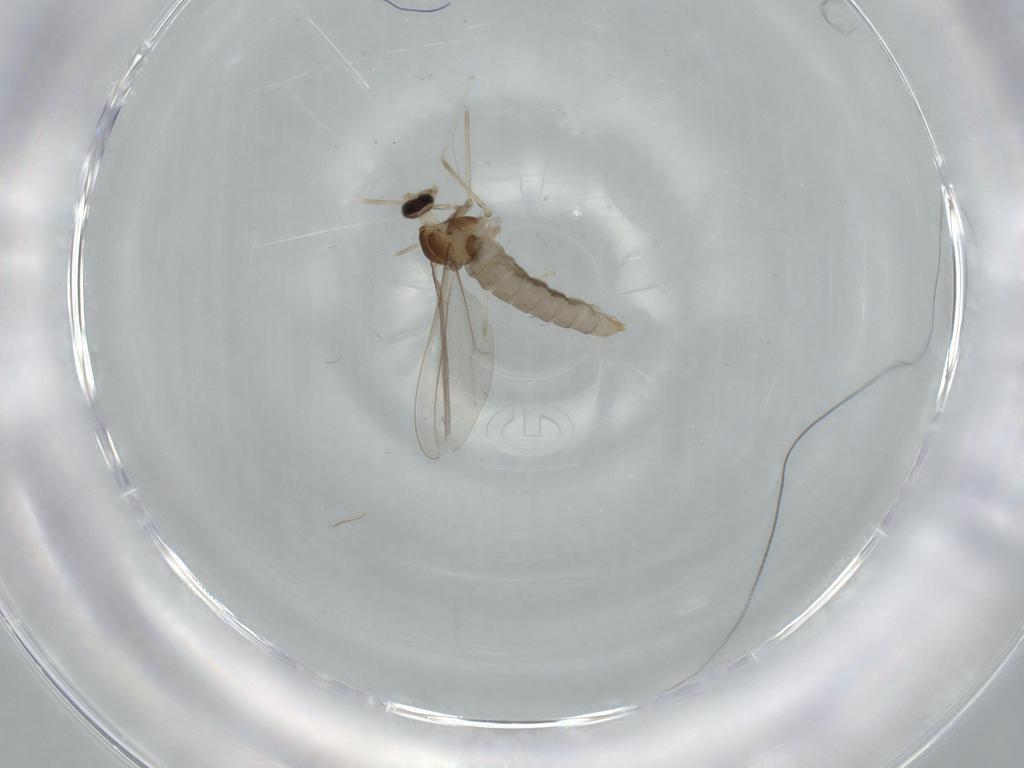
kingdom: Animalia
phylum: Arthropoda
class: Insecta
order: Diptera
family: Cecidomyiidae
